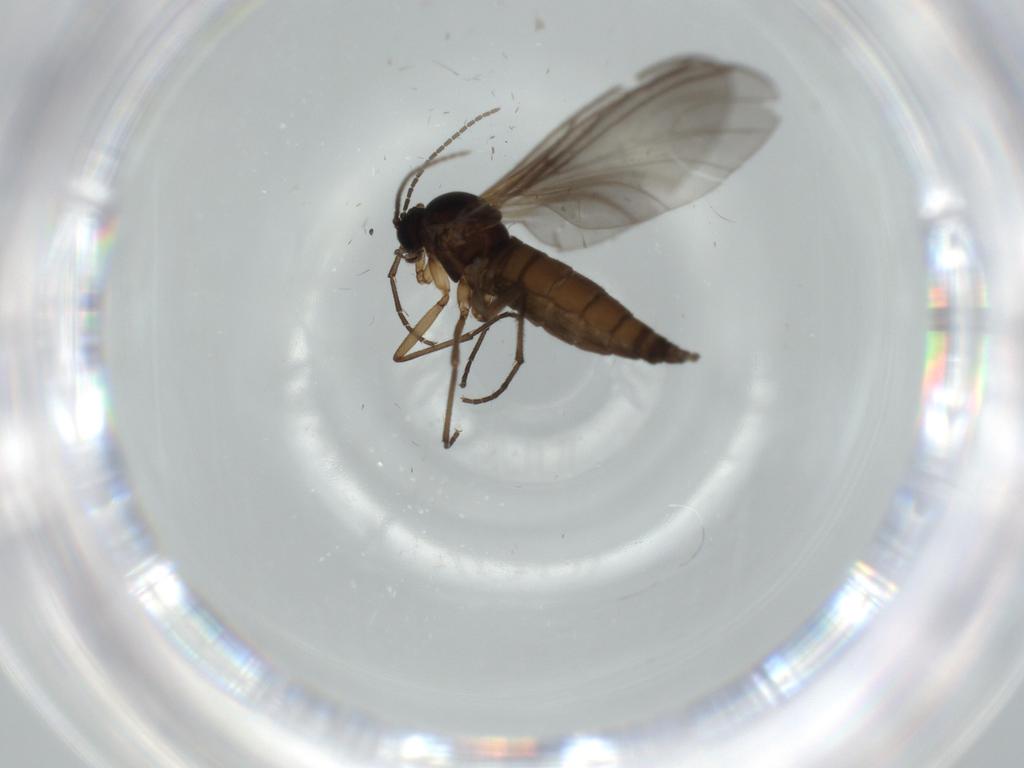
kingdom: Animalia
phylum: Arthropoda
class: Insecta
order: Diptera
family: Sciaridae
